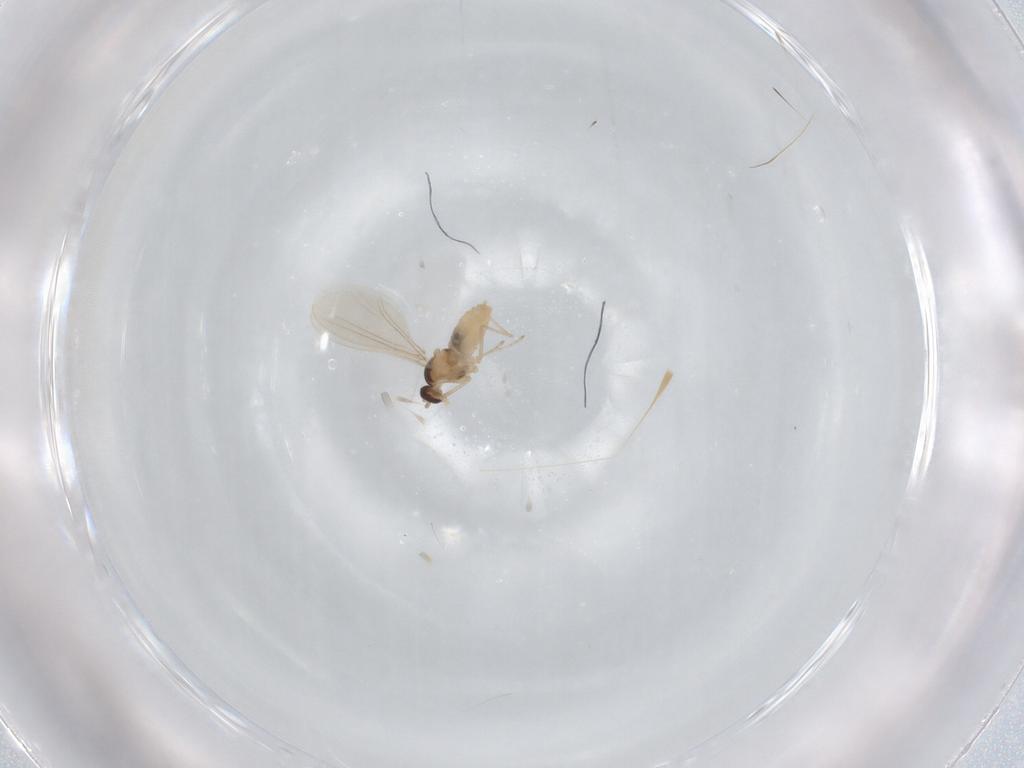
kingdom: Animalia
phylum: Arthropoda
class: Insecta
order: Diptera
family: Cecidomyiidae
